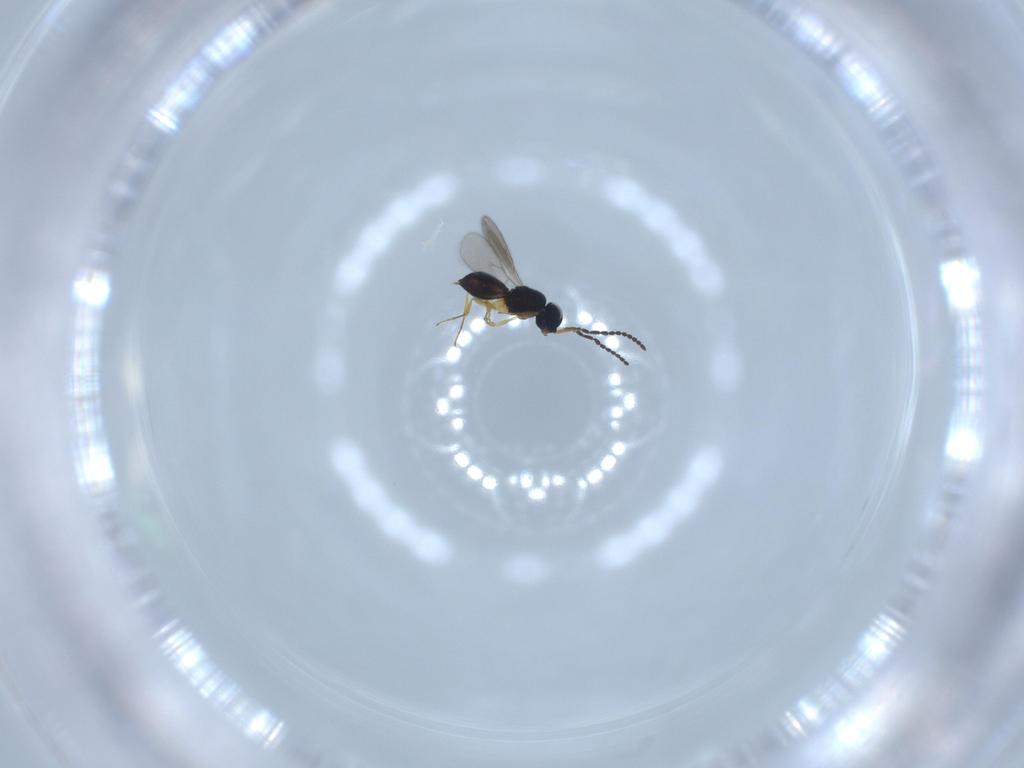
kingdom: Animalia
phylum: Arthropoda
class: Insecta
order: Hymenoptera
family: Scelionidae
